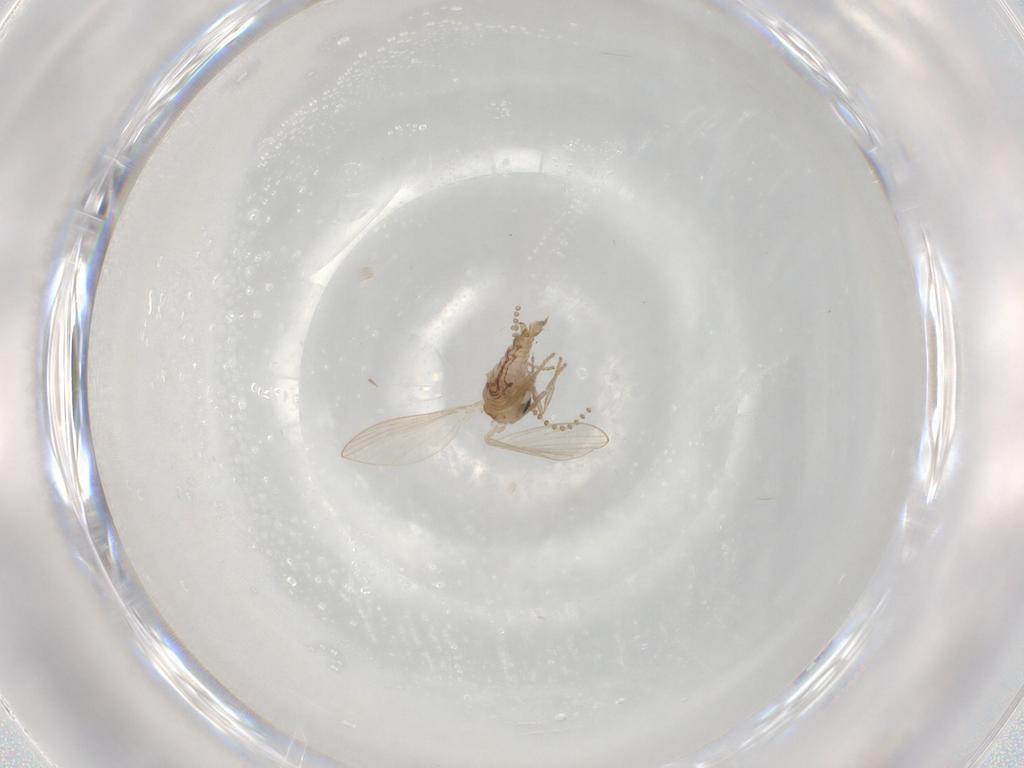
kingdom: Animalia
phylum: Arthropoda
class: Insecta
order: Diptera
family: Psychodidae
